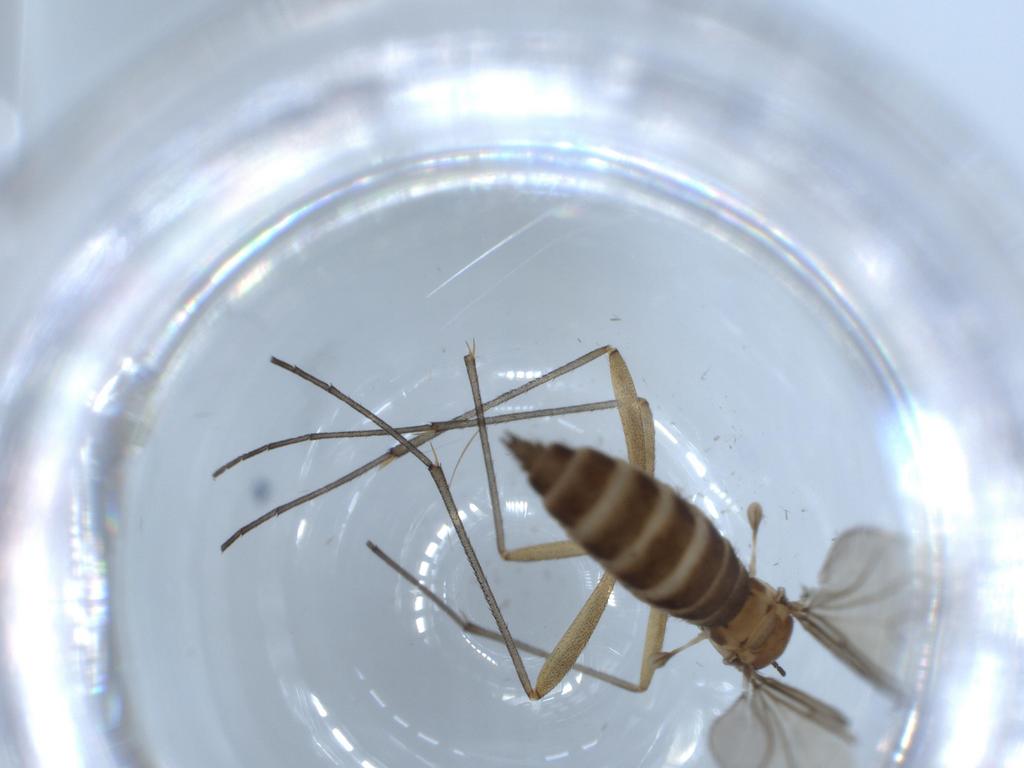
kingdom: Animalia
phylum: Arthropoda
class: Insecta
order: Diptera
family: Sciaridae
